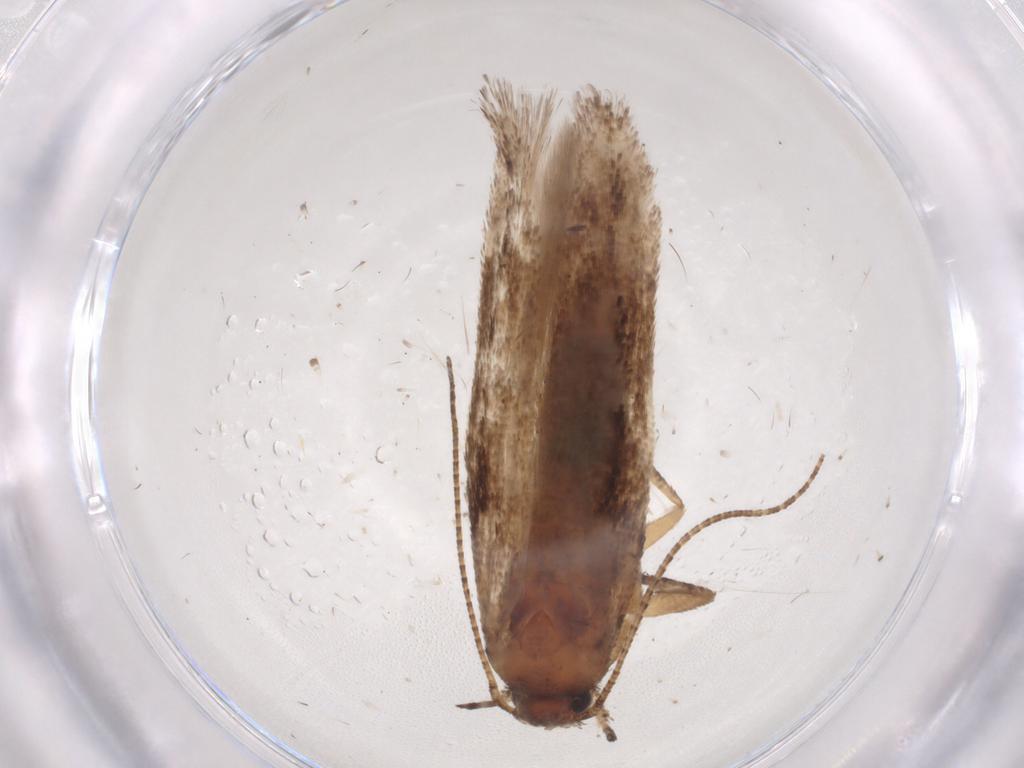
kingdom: Animalia
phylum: Arthropoda
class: Insecta
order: Lepidoptera
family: Gelechiidae
